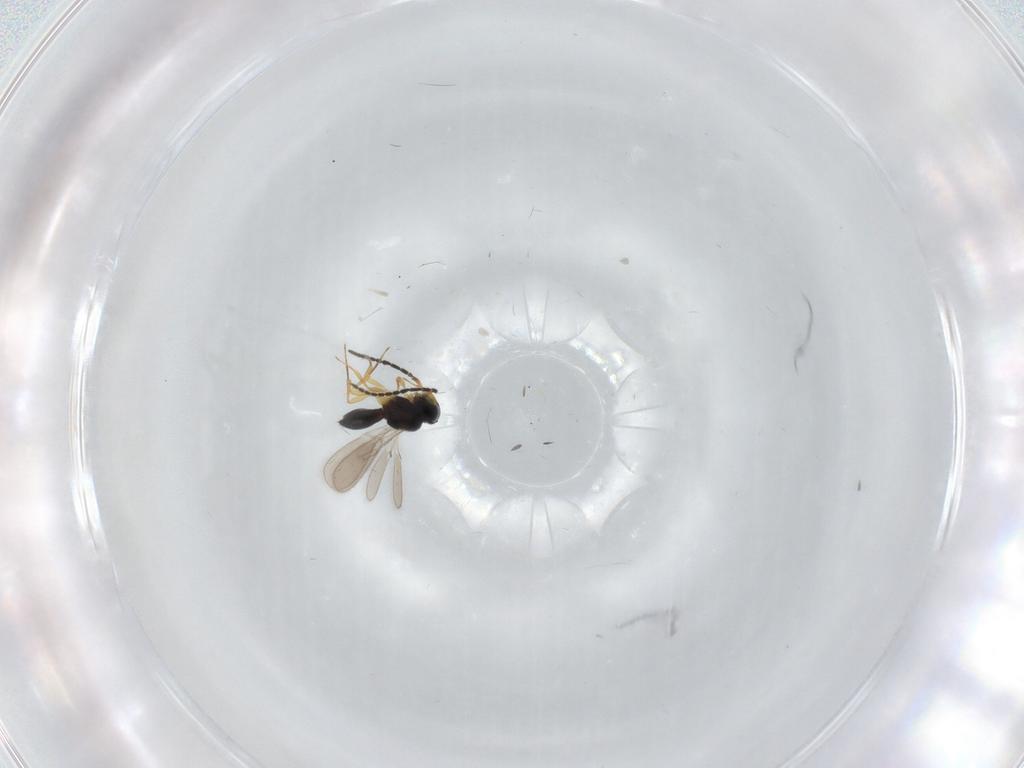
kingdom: Animalia
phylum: Arthropoda
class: Insecta
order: Hymenoptera
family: Scelionidae
